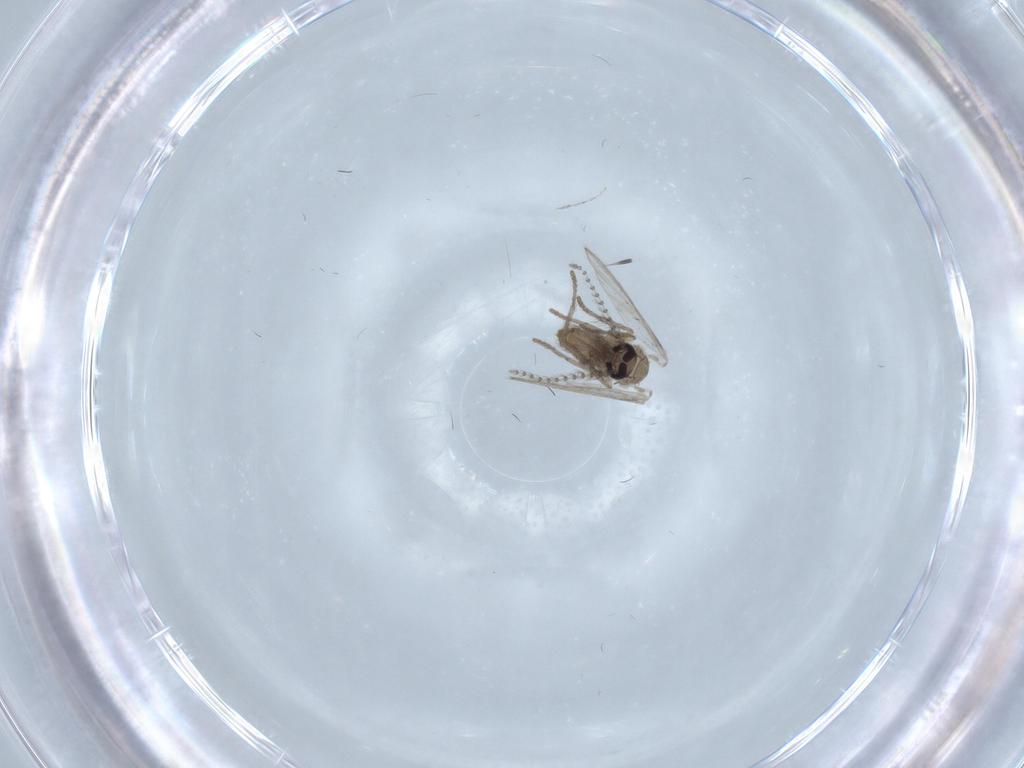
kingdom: Animalia
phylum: Arthropoda
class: Insecta
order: Diptera
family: Psychodidae
